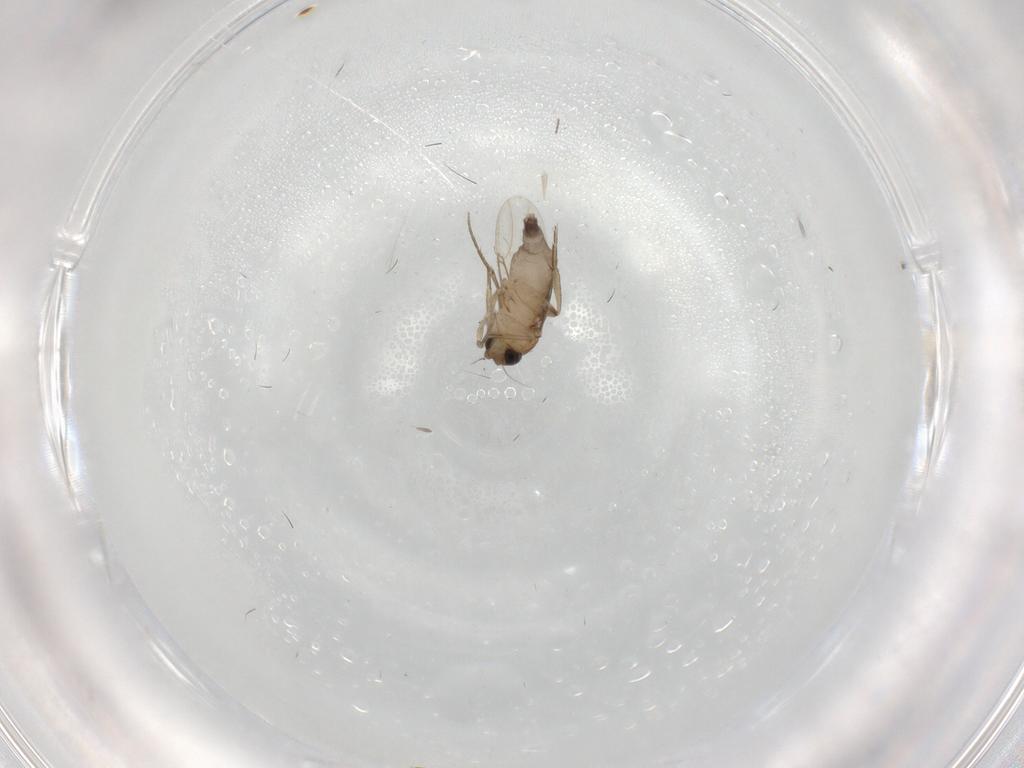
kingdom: Animalia
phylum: Arthropoda
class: Insecta
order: Diptera
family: Phoridae
